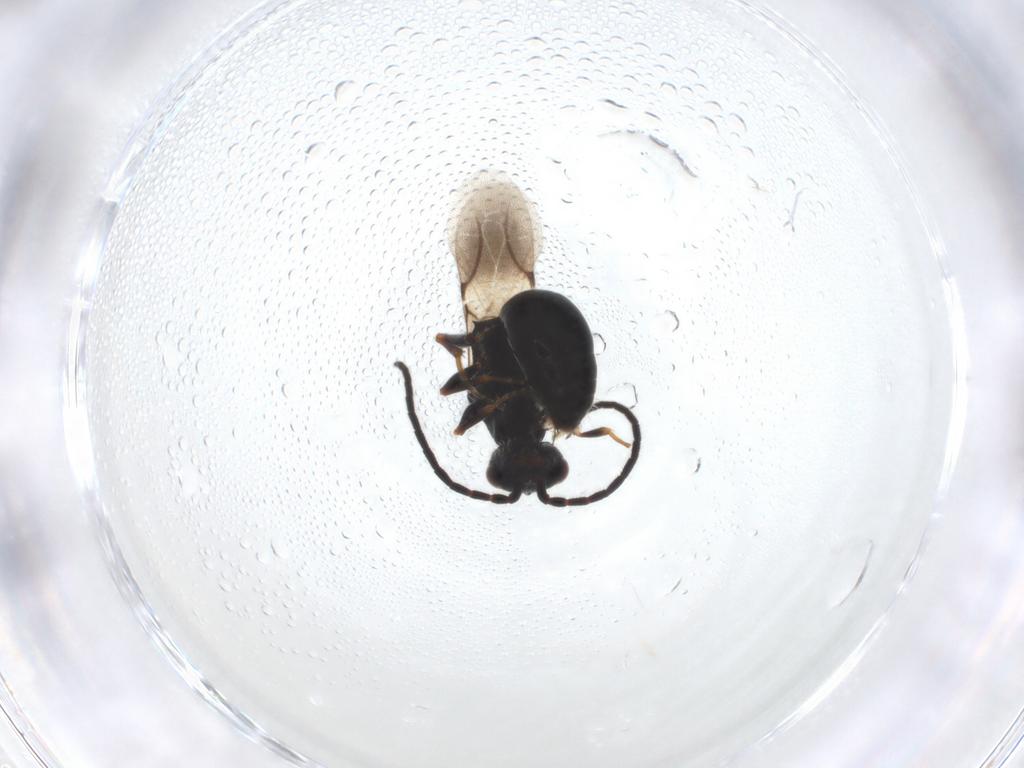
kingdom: Animalia
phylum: Arthropoda
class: Insecta
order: Hymenoptera
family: Bethylidae
